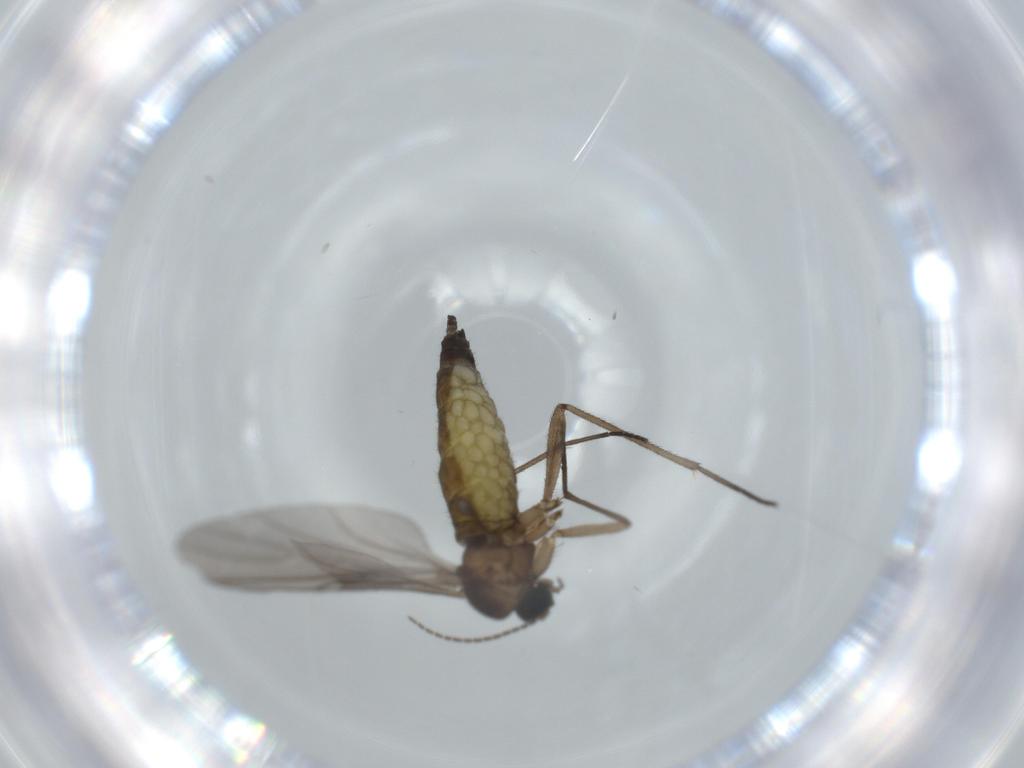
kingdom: Animalia
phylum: Arthropoda
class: Insecta
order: Diptera
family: Sciaridae
